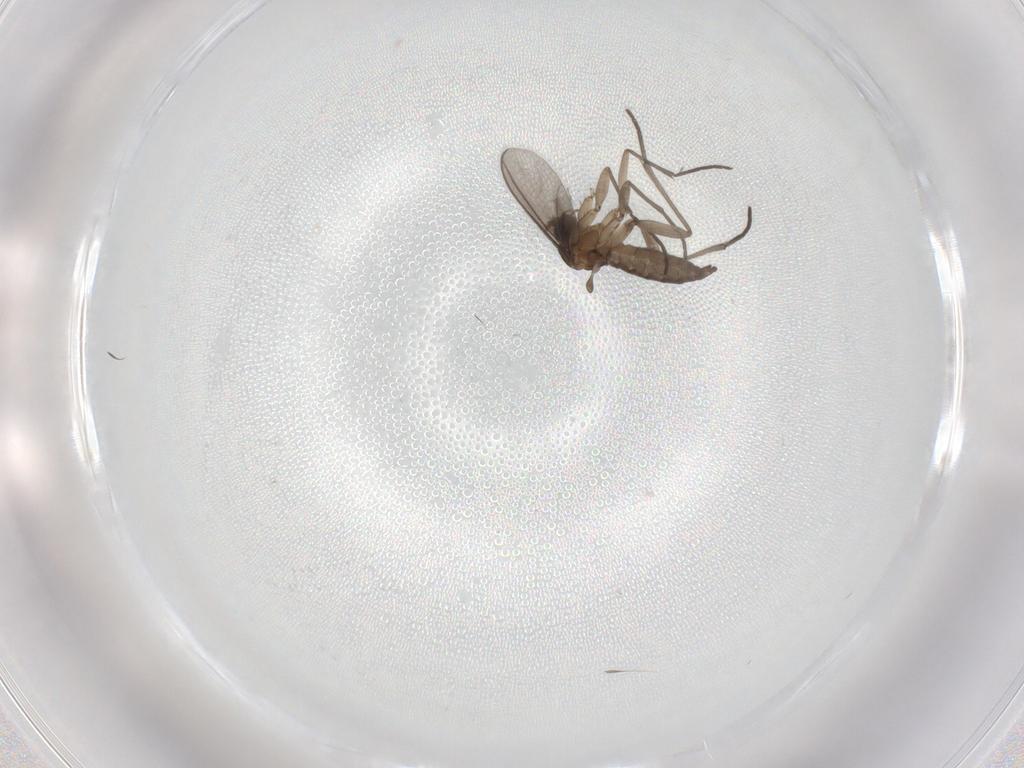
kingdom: Animalia
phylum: Arthropoda
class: Insecta
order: Diptera
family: Sciaridae
